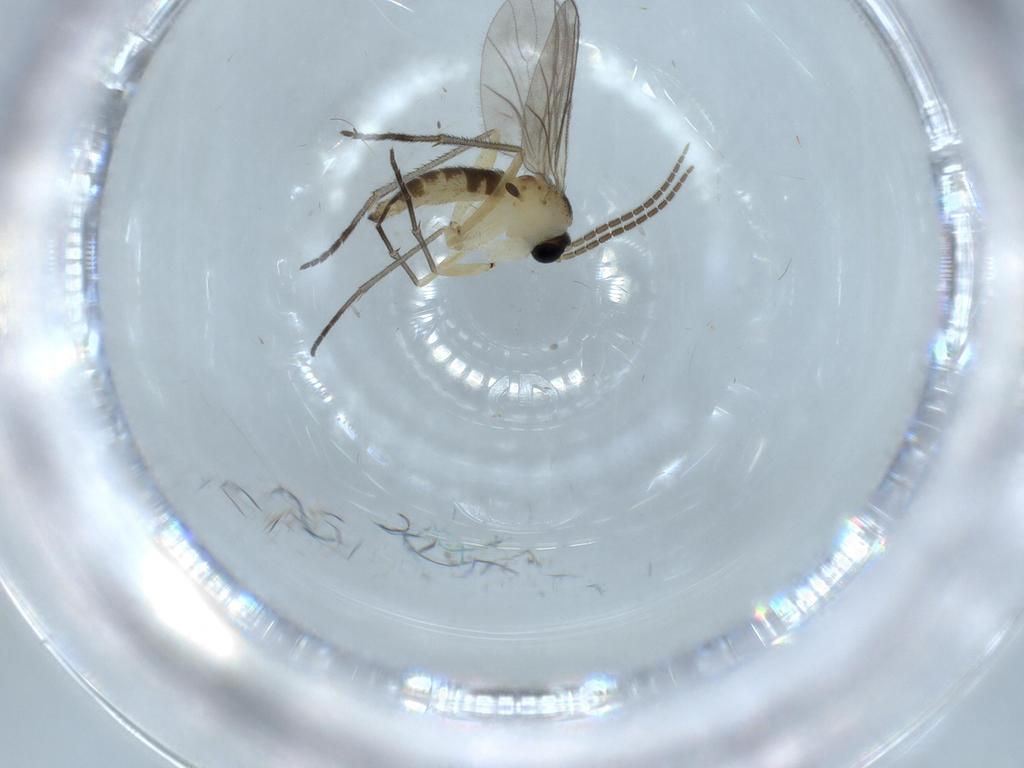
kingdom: Animalia
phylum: Arthropoda
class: Insecta
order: Diptera
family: Sciaridae
